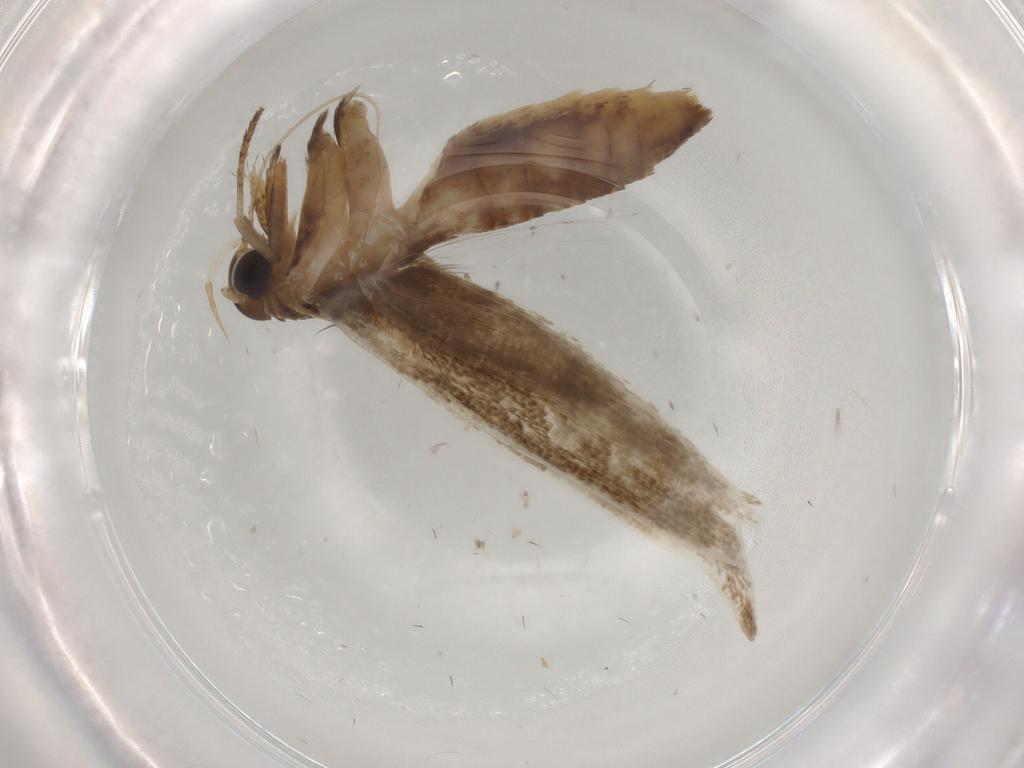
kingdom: Animalia
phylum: Arthropoda
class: Insecta
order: Lepidoptera
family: Blastobasidae
